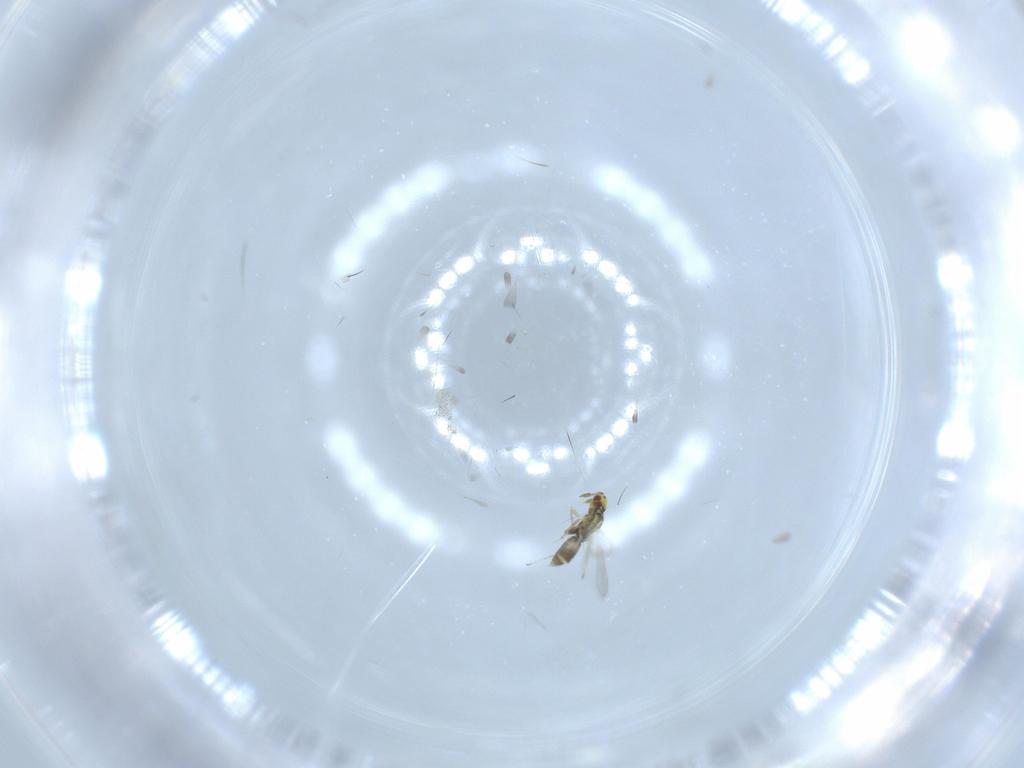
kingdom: Animalia
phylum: Arthropoda
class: Insecta
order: Hymenoptera
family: Eulophidae
